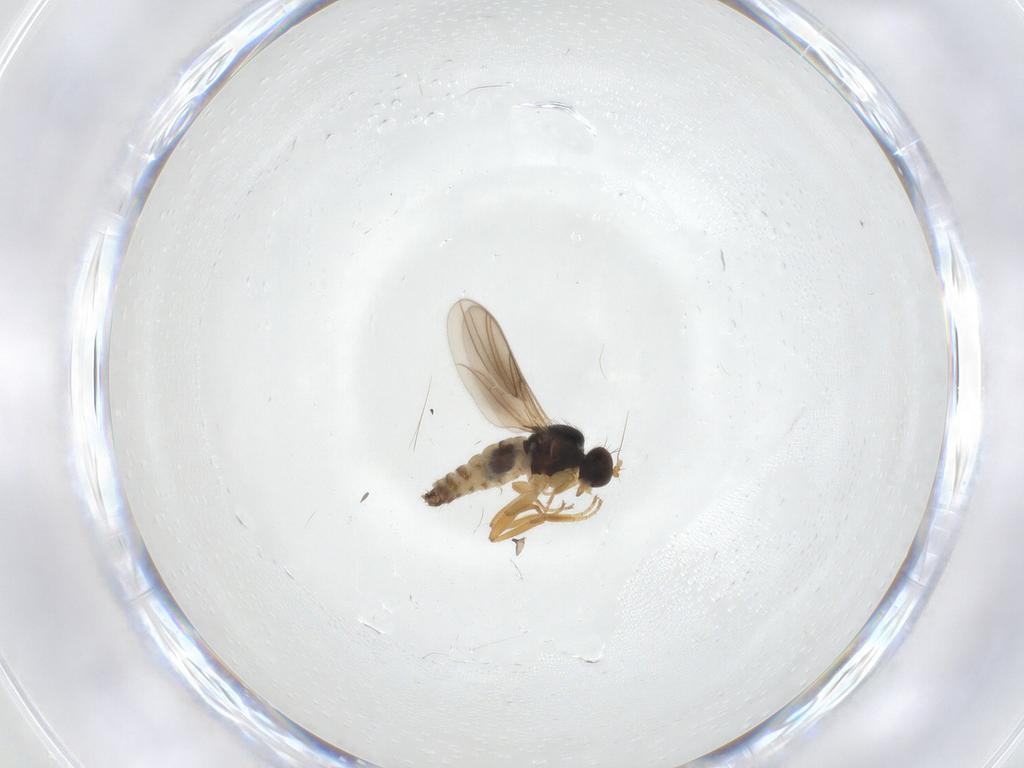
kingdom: Animalia
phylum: Arthropoda
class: Insecta
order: Diptera
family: Hybotidae
